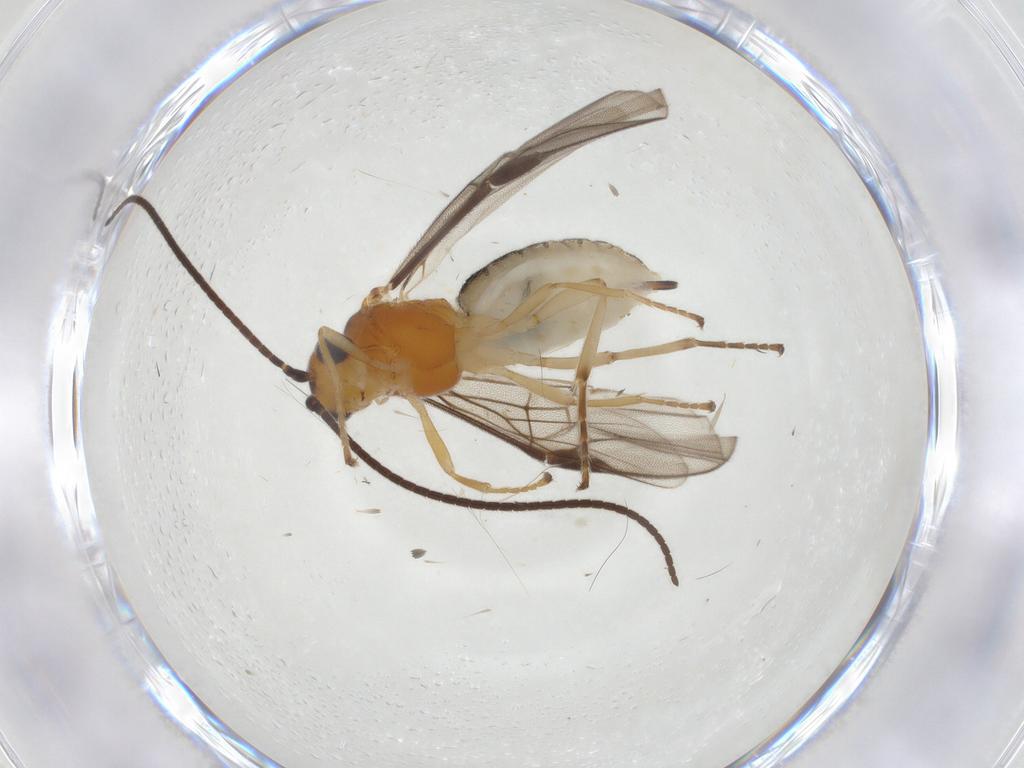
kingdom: Animalia
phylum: Arthropoda
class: Insecta
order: Hymenoptera
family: Braconidae
